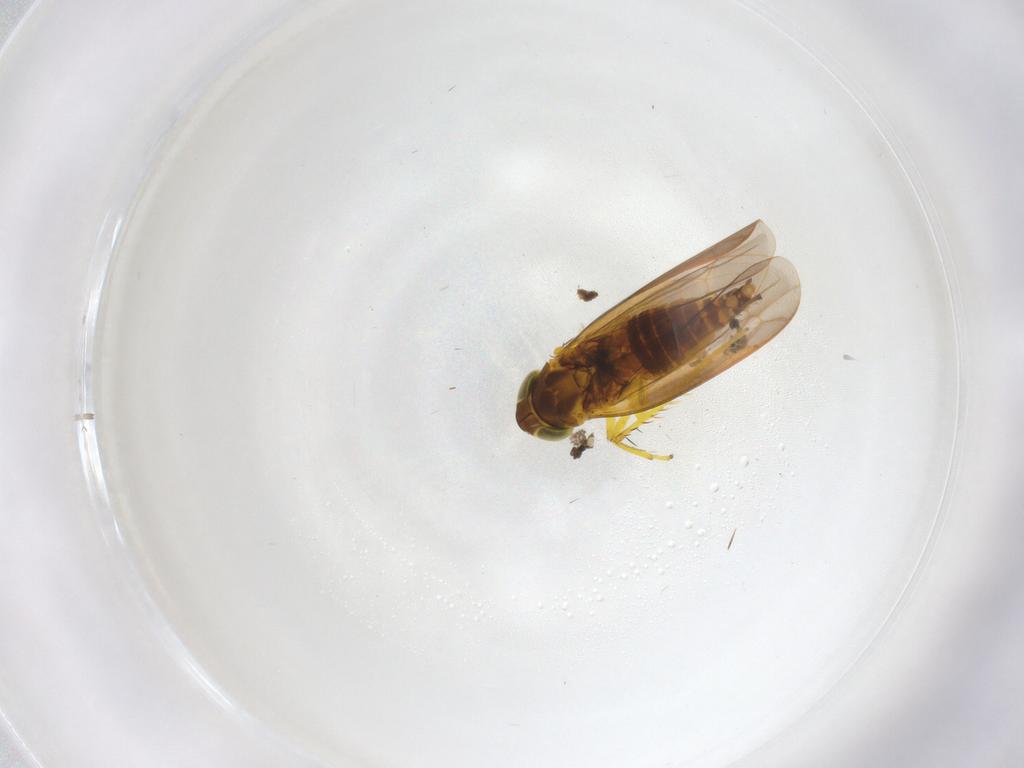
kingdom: Animalia
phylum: Arthropoda
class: Insecta
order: Hemiptera
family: Cicadellidae
